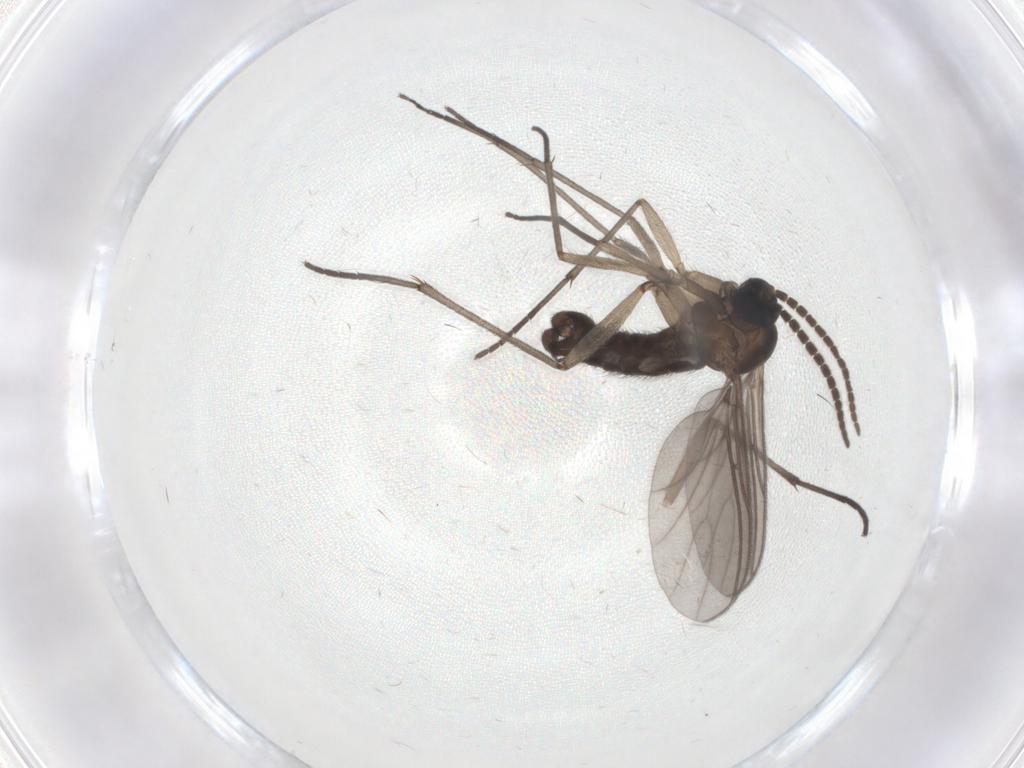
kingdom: Animalia
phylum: Arthropoda
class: Insecta
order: Diptera
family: Sciaridae
